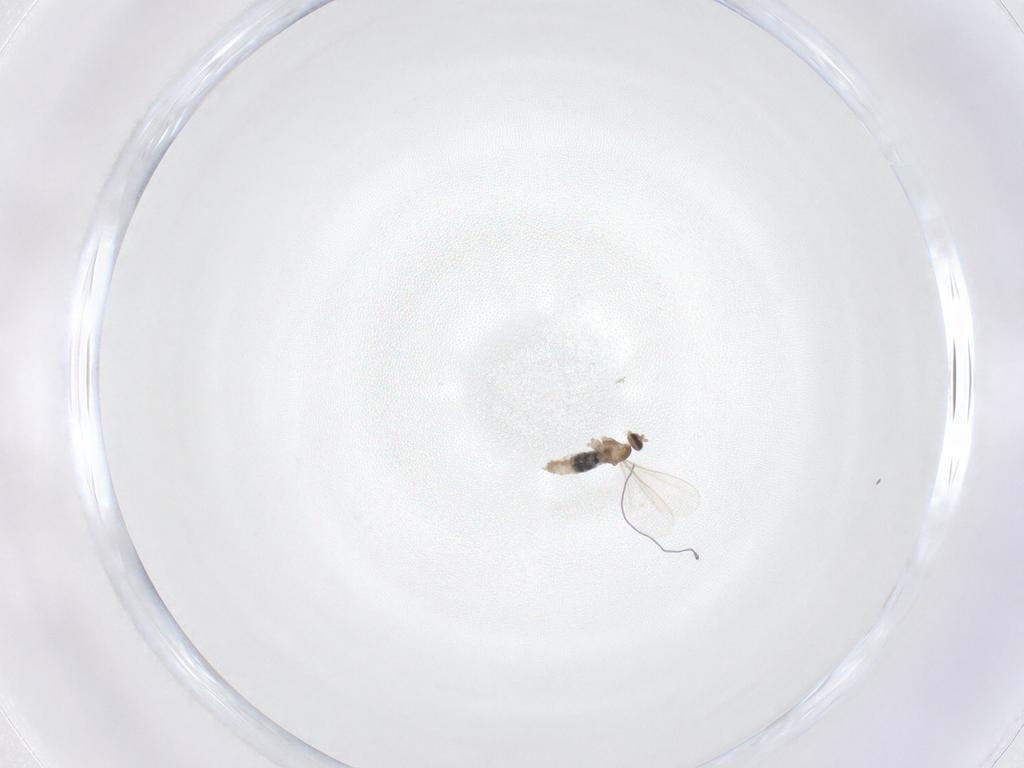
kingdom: Animalia
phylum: Arthropoda
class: Insecta
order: Diptera
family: Cecidomyiidae
